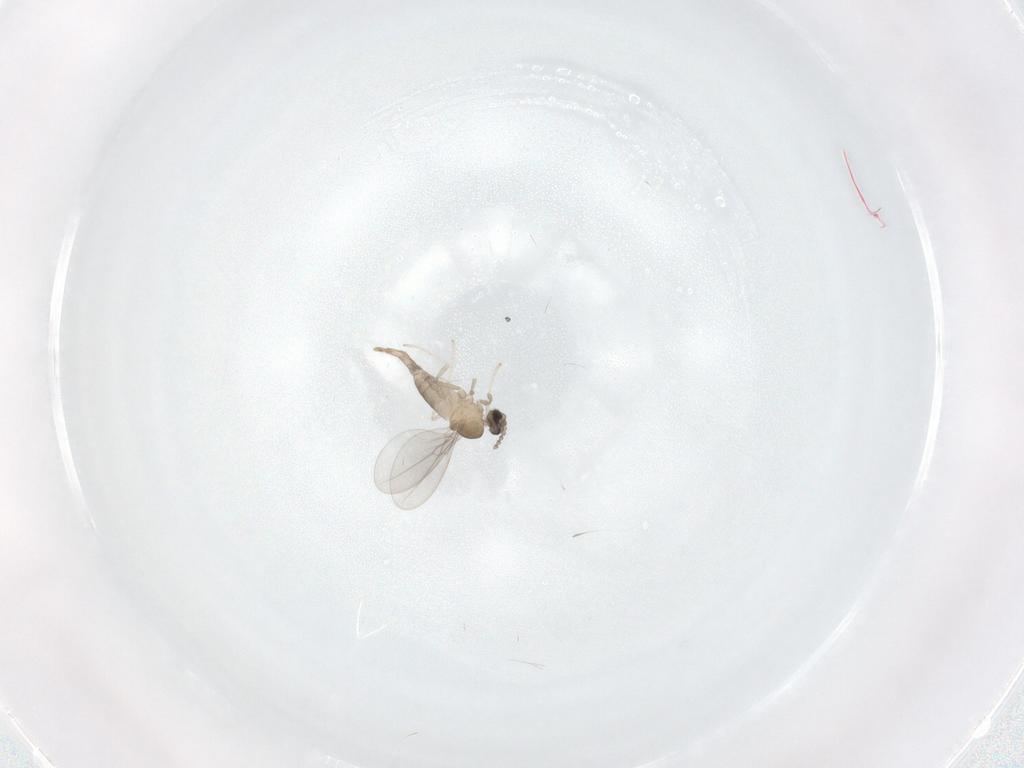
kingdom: Animalia
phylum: Arthropoda
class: Insecta
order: Diptera
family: Cecidomyiidae
